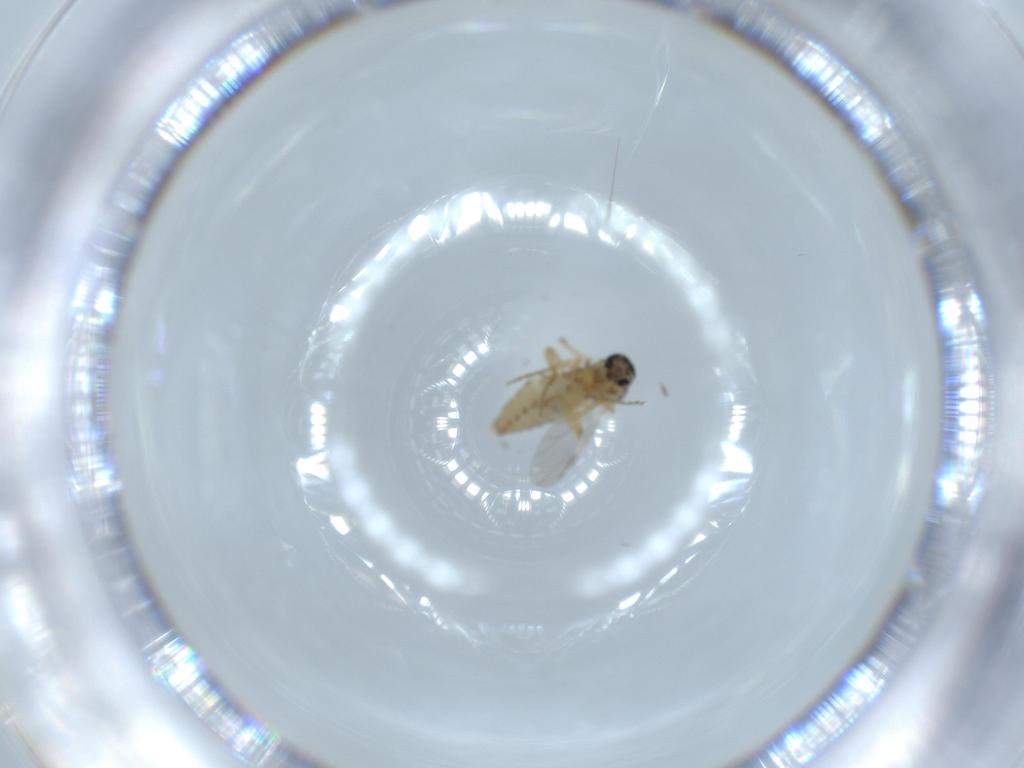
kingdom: Animalia
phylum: Arthropoda
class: Insecta
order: Diptera
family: Ceratopogonidae
